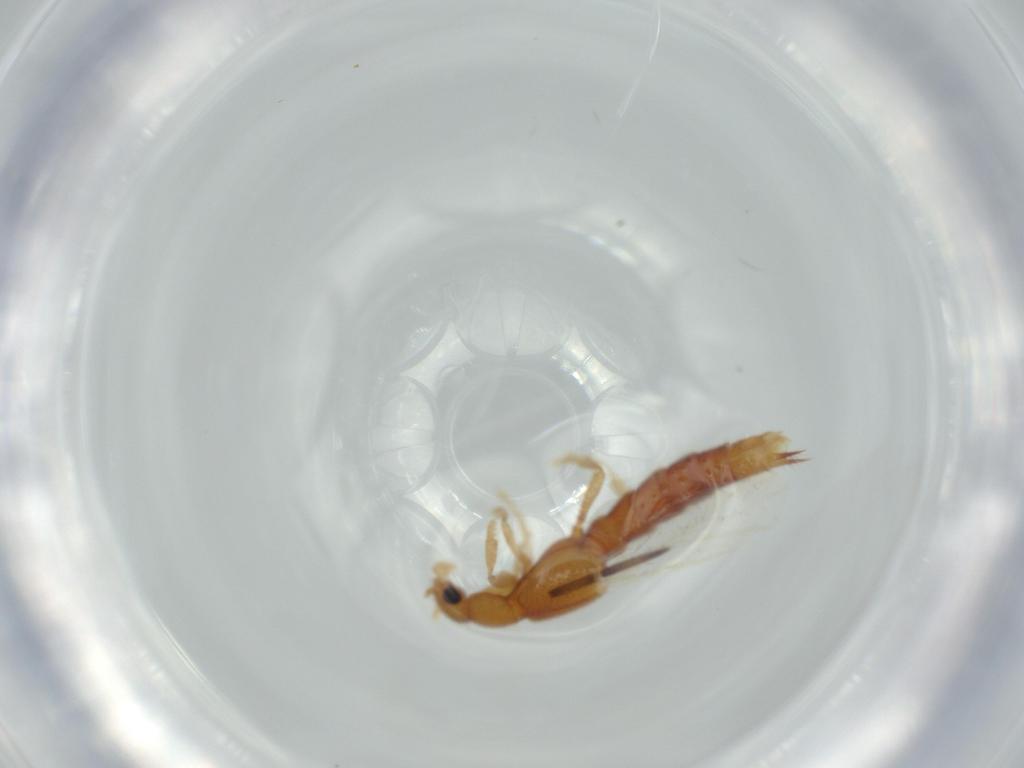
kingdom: Animalia
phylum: Arthropoda
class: Insecta
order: Coleoptera
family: Staphylinidae
